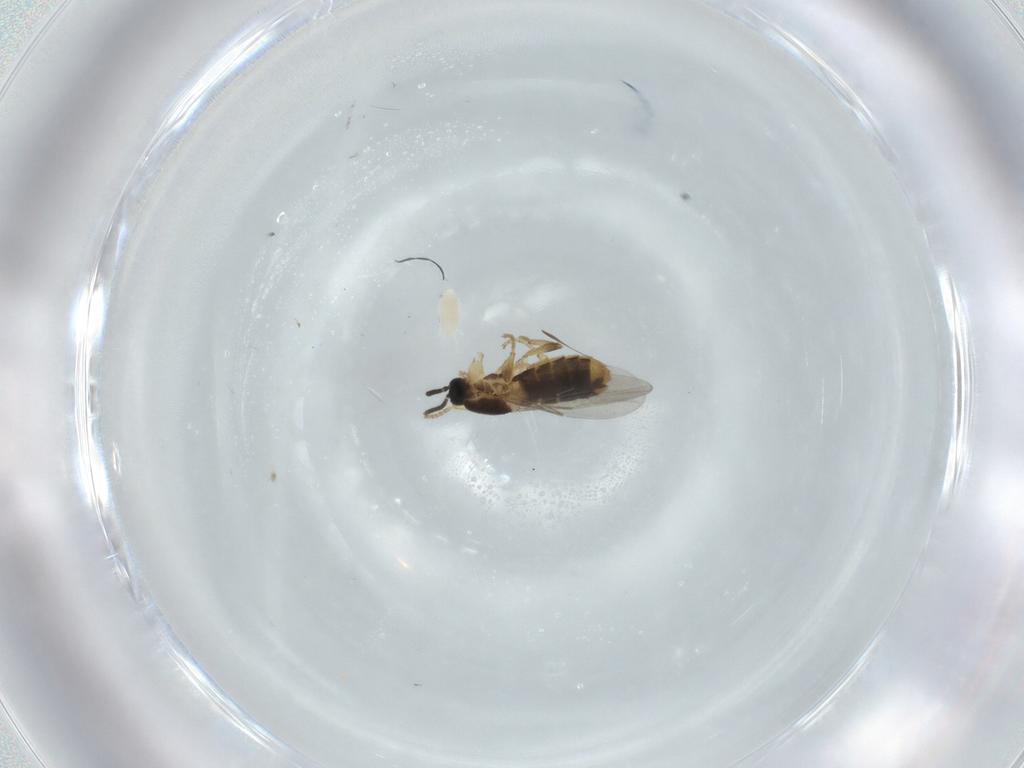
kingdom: Animalia
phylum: Arthropoda
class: Insecta
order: Diptera
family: Scatopsidae
